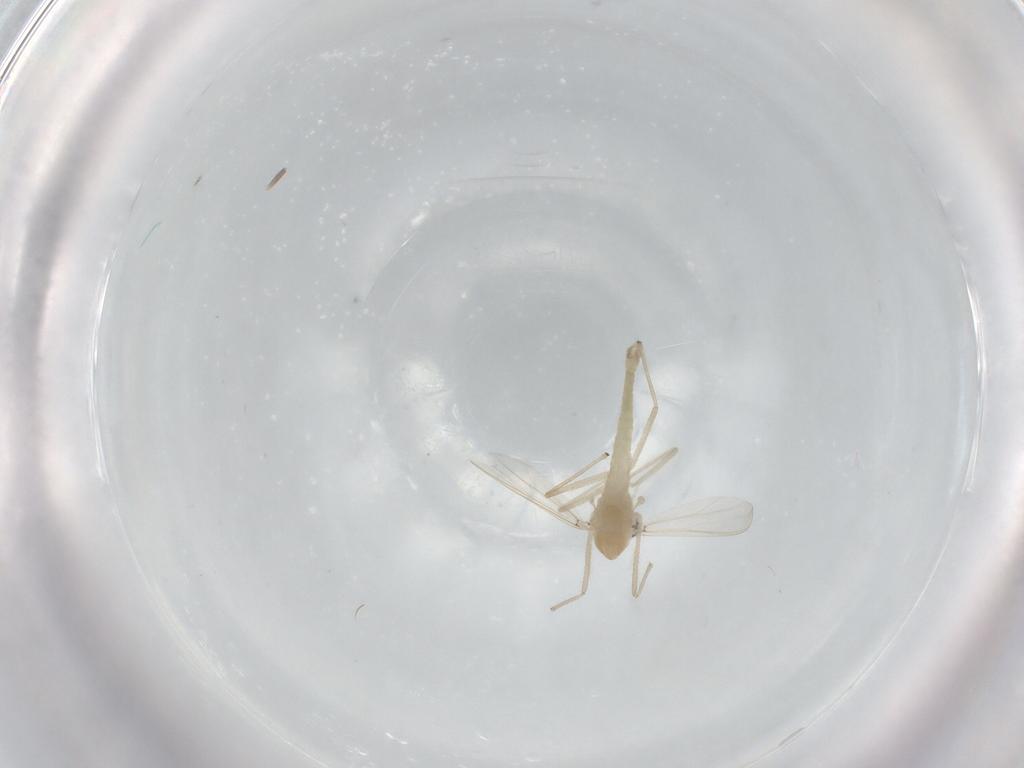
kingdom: Animalia
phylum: Arthropoda
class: Insecta
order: Diptera
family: Chironomidae
